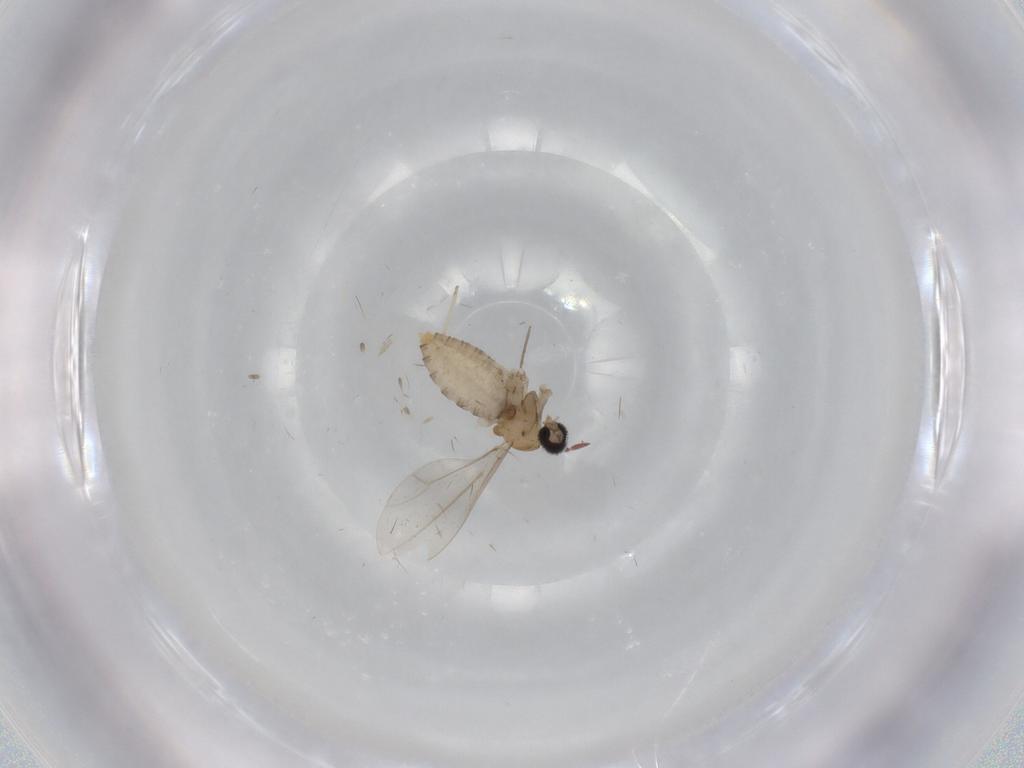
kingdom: Animalia
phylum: Arthropoda
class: Insecta
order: Diptera
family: Cecidomyiidae
